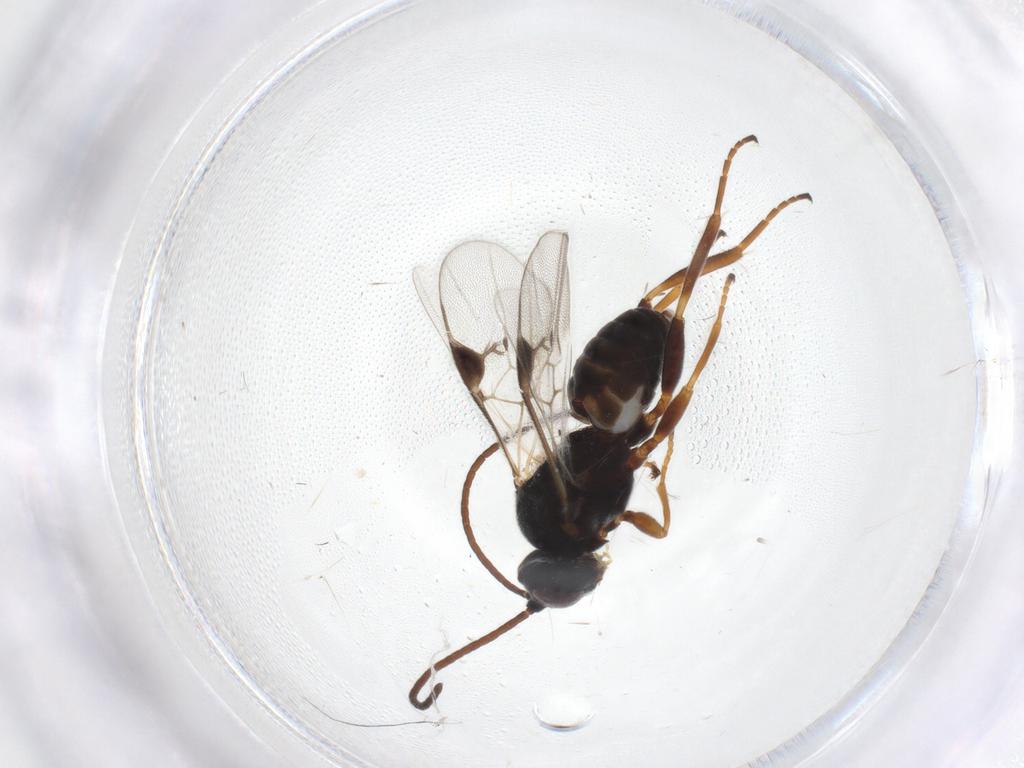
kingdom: Animalia
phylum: Arthropoda
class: Insecta
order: Hymenoptera
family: Braconidae
